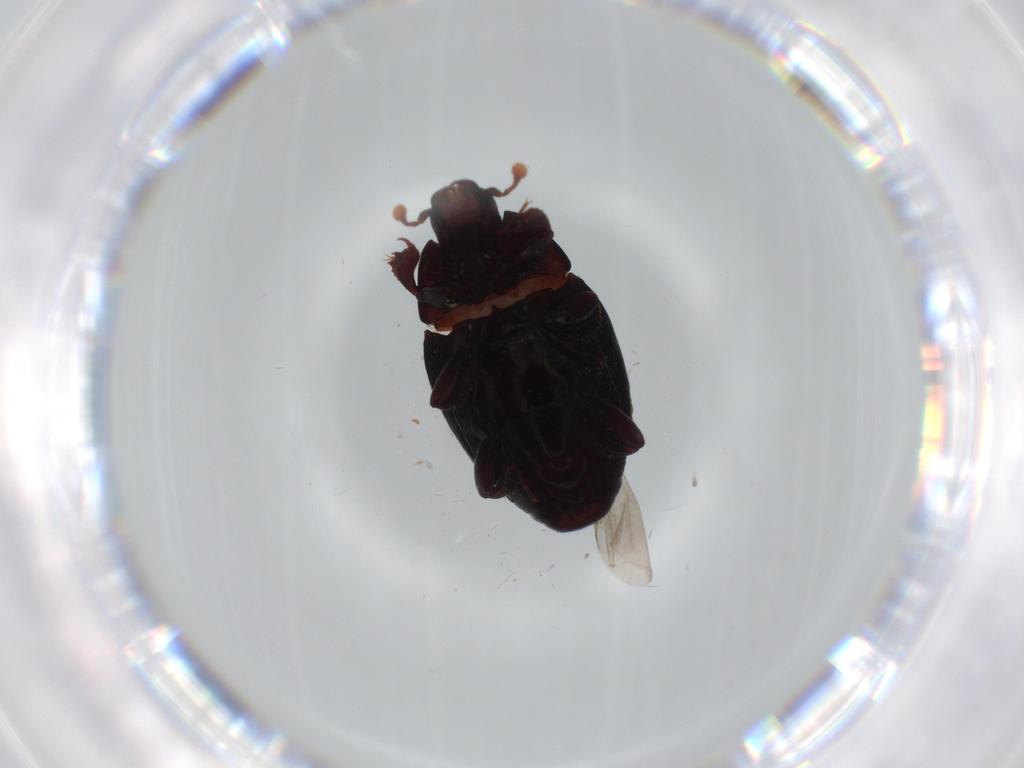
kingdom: Animalia
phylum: Arthropoda
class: Insecta
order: Coleoptera
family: Histeridae
